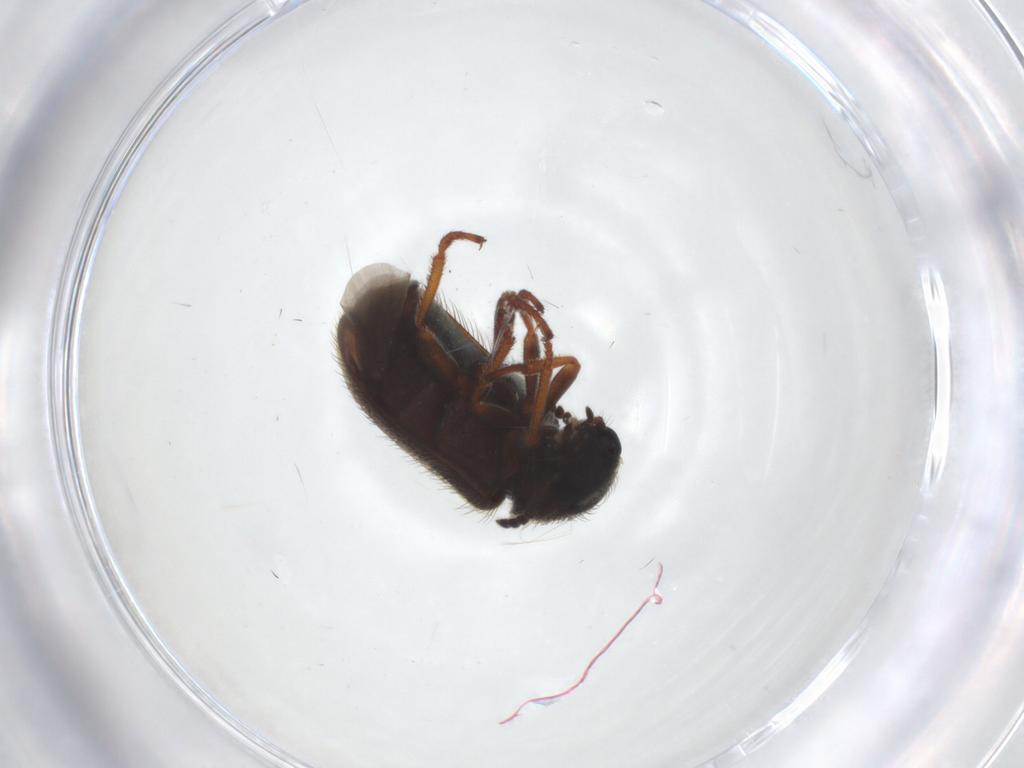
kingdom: Animalia
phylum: Arthropoda
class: Insecta
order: Coleoptera
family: Melyridae
